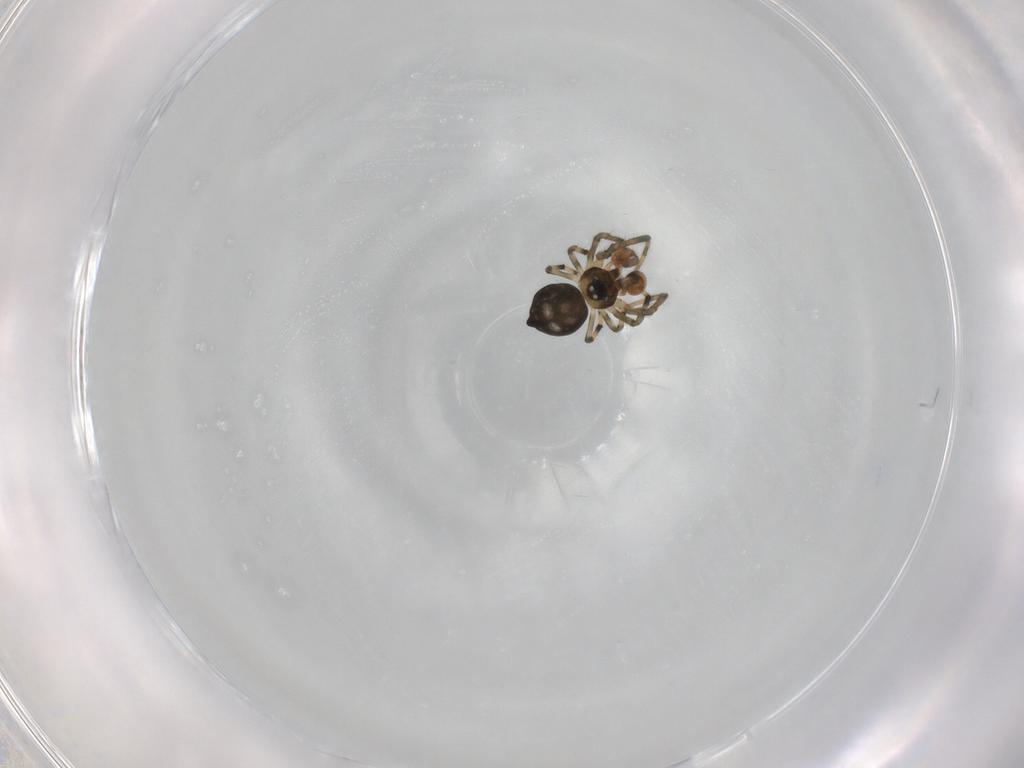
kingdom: Animalia
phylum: Arthropoda
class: Arachnida
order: Araneae
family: Mysmenidae
